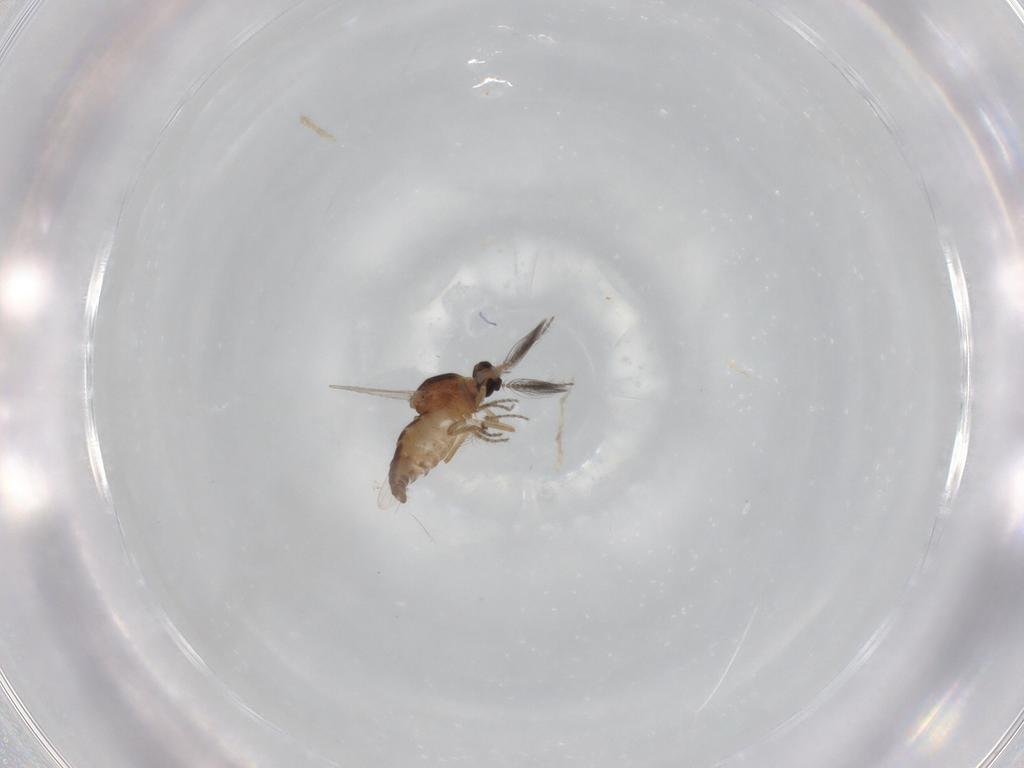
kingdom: Animalia
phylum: Arthropoda
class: Insecta
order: Diptera
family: Ceratopogonidae
